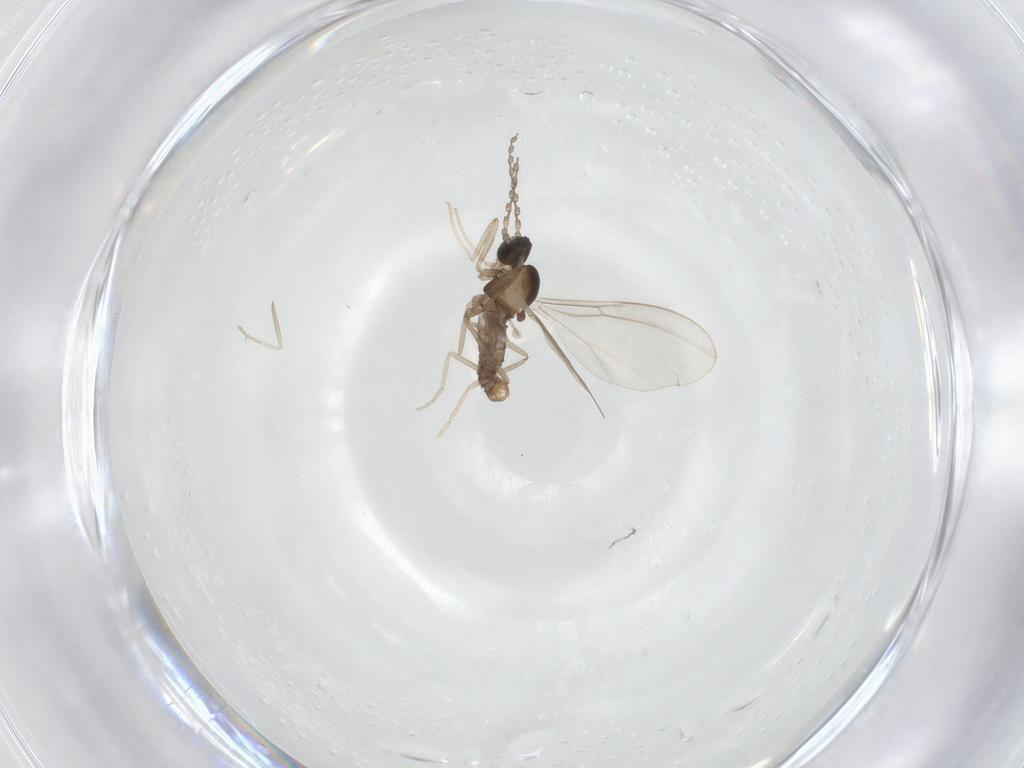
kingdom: Animalia
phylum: Arthropoda
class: Insecta
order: Diptera
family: Cecidomyiidae
